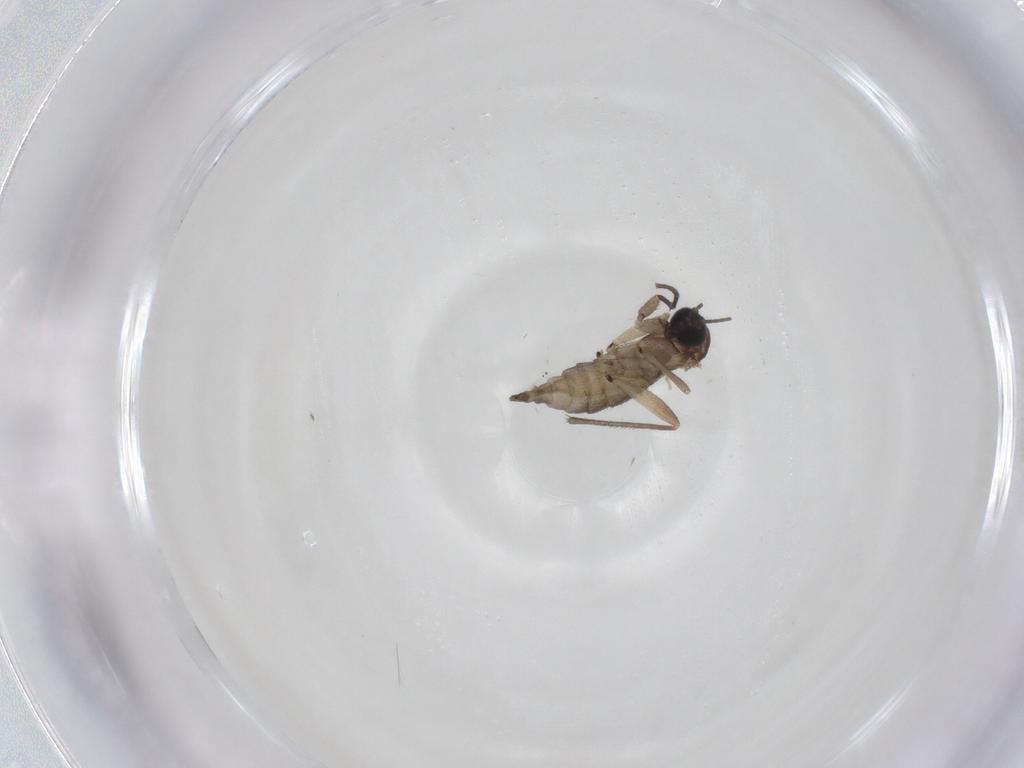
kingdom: Animalia
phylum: Arthropoda
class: Insecta
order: Diptera
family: Sciaridae
